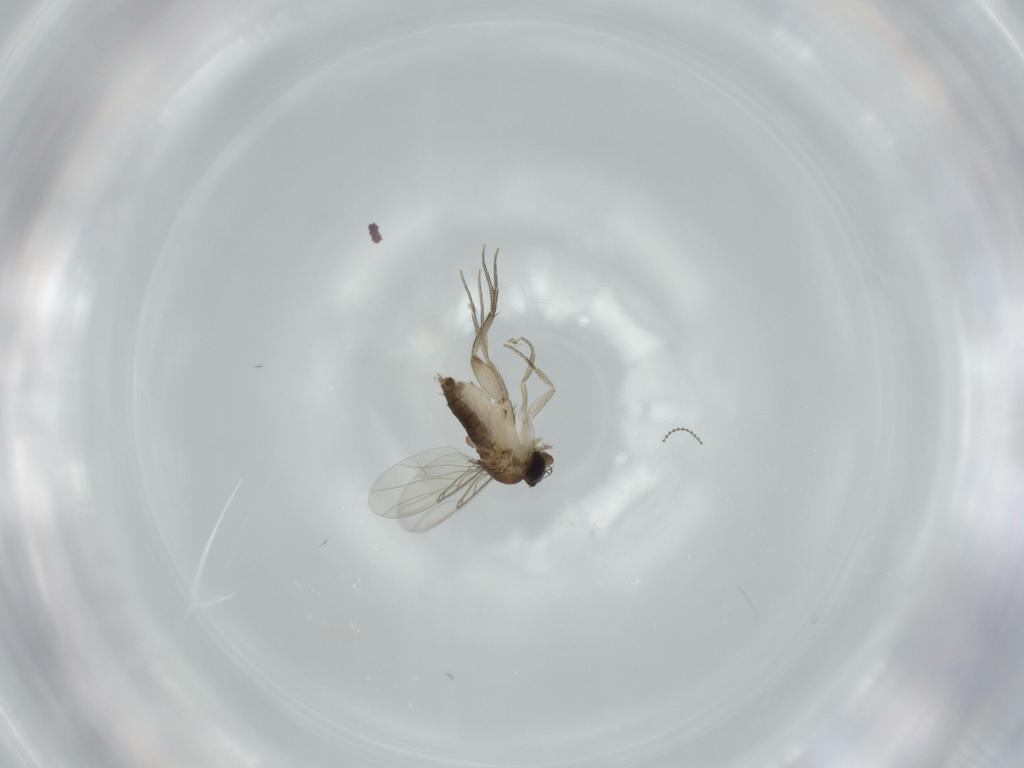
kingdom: Animalia
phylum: Arthropoda
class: Insecta
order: Diptera
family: Phoridae
